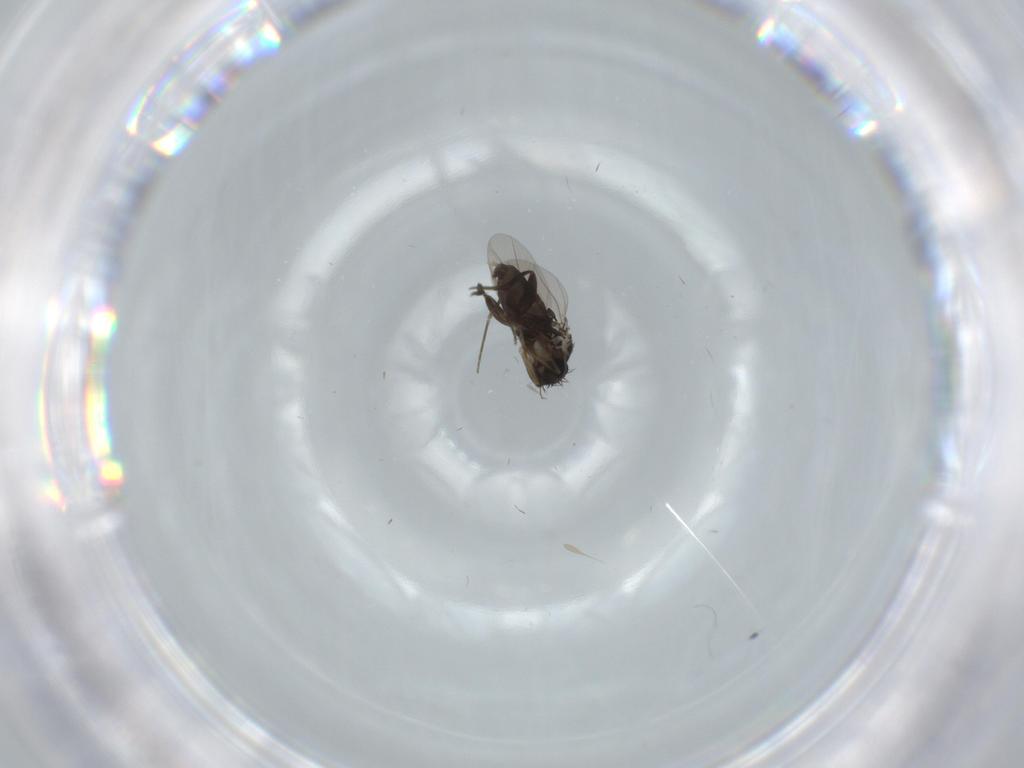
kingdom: Animalia
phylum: Arthropoda
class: Insecta
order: Diptera
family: Phoridae
